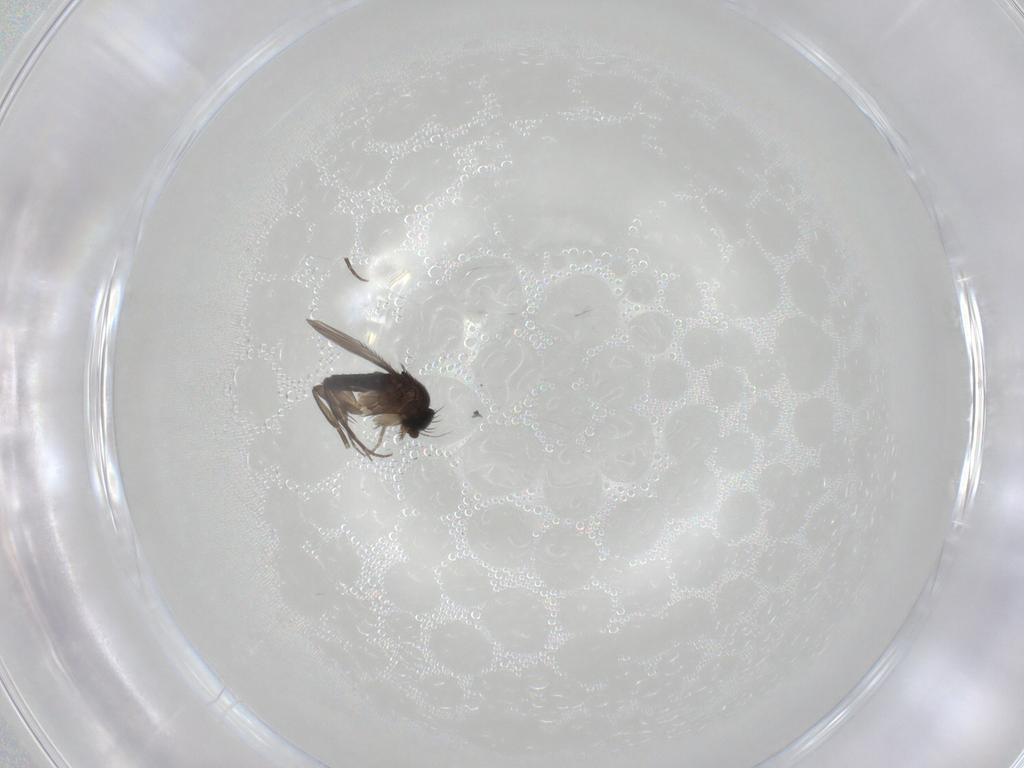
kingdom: Animalia
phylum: Arthropoda
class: Insecta
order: Diptera
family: Phoridae
